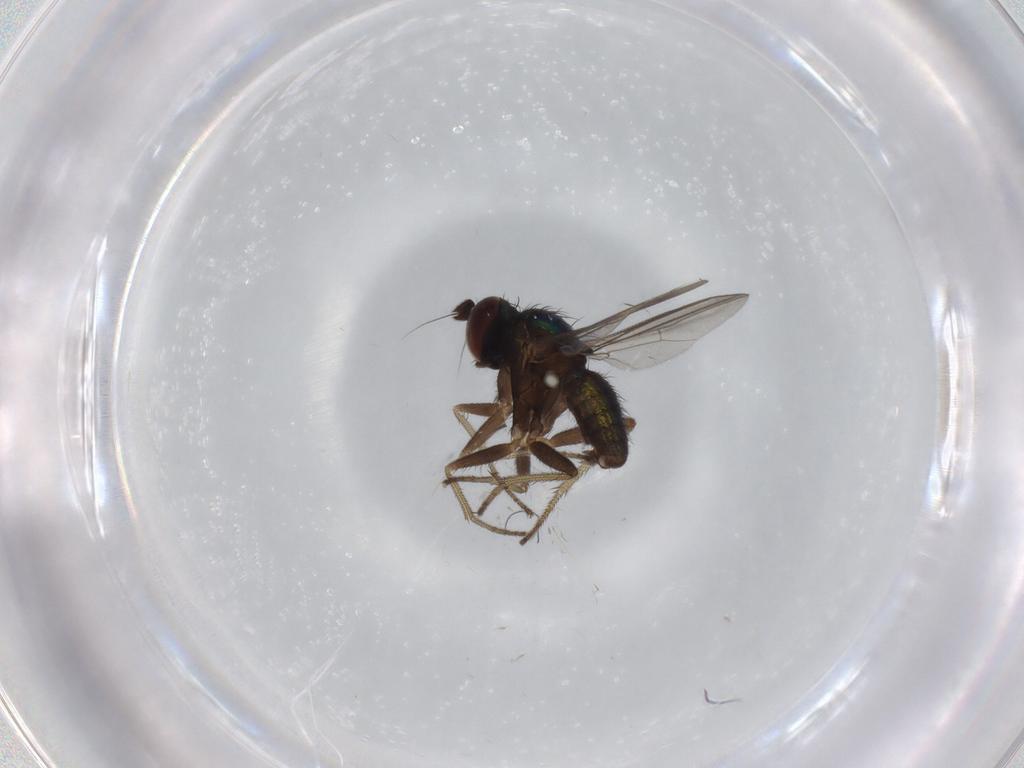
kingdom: Animalia
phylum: Arthropoda
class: Insecta
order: Diptera
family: Dolichopodidae
